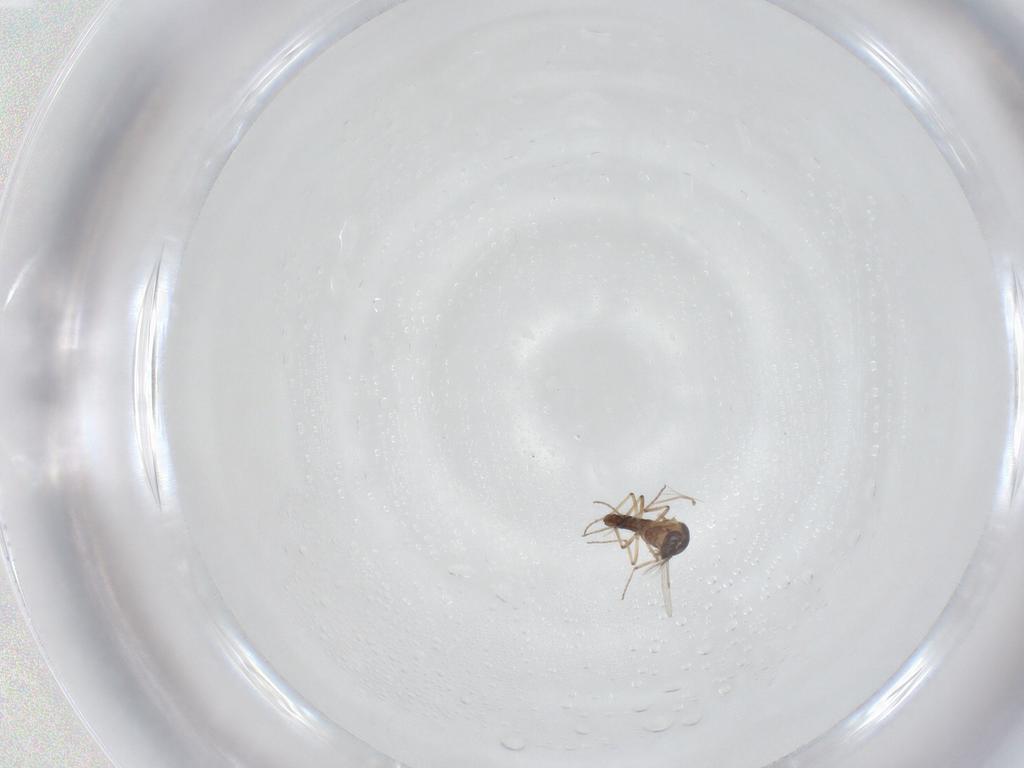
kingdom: Animalia
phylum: Arthropoda
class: Insecta
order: Diptera
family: Ceratopogonidae
